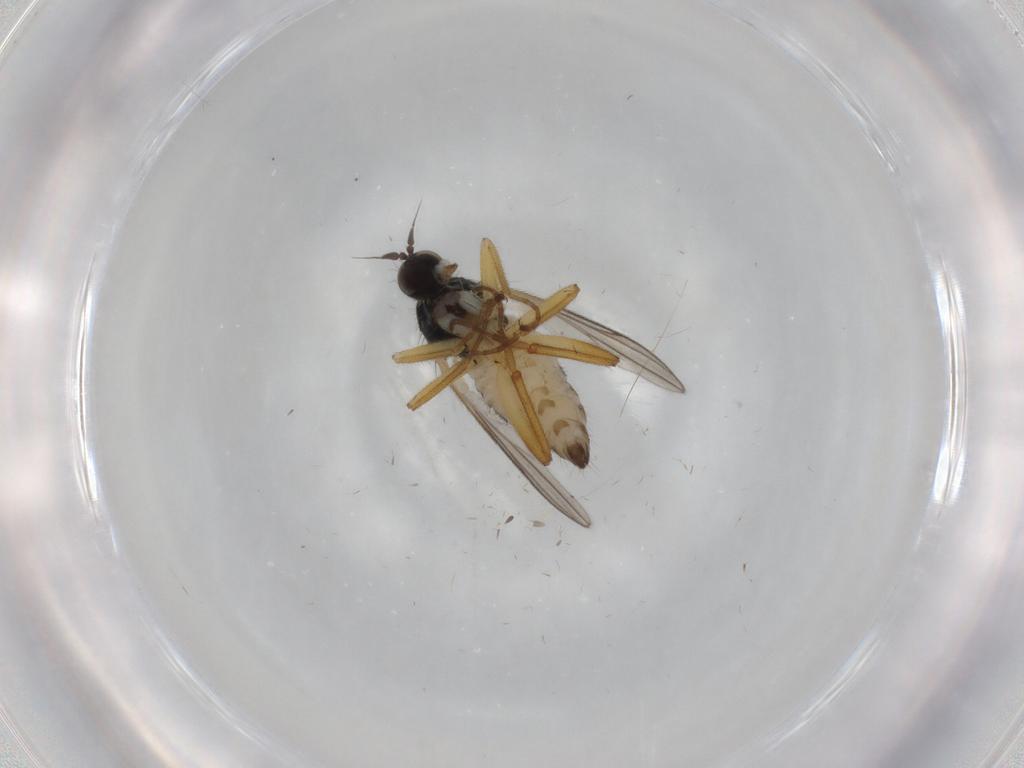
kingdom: Animalia
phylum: Arthropoda
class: Insecta
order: Diptera
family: Hybotidae
